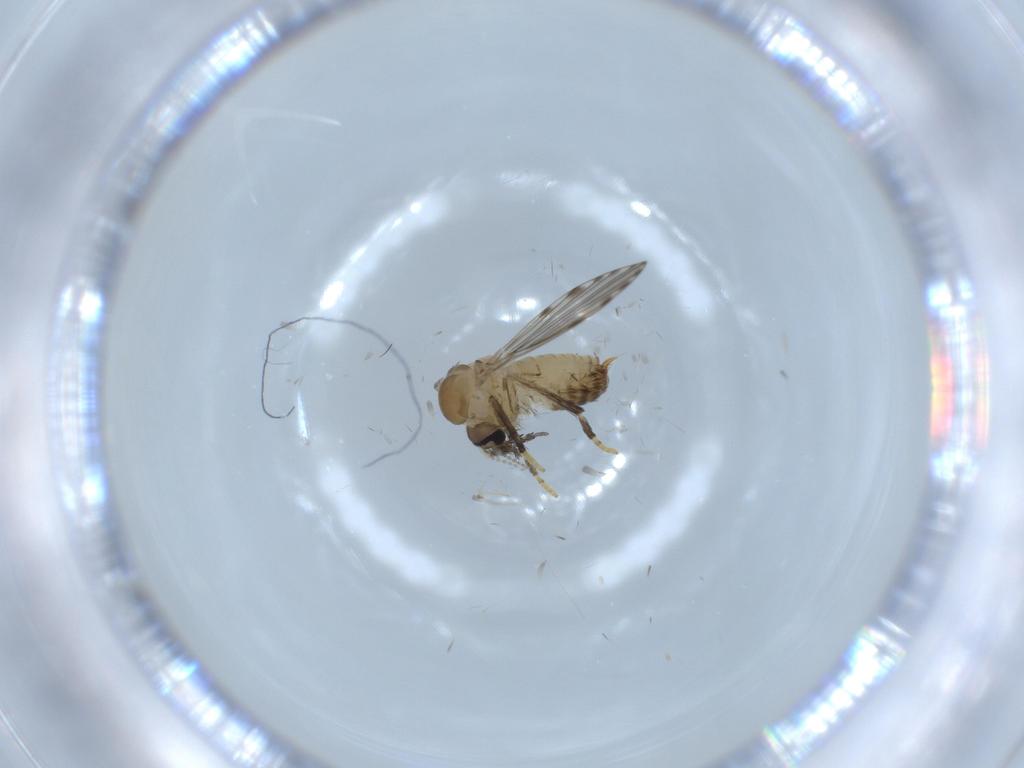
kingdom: Animalia
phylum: Arthropoda
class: Insecta
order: Diptera
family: Psychodidae
